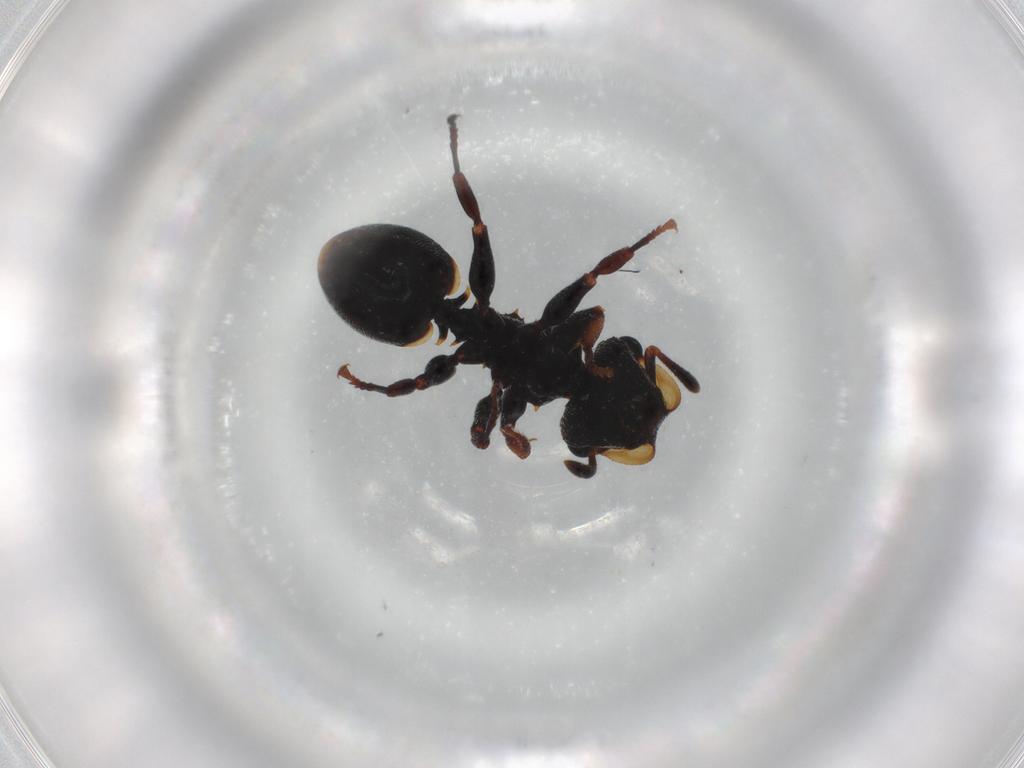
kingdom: Animalia
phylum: Arthropoda
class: Insecta
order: Hymenoptera
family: Formicidae
